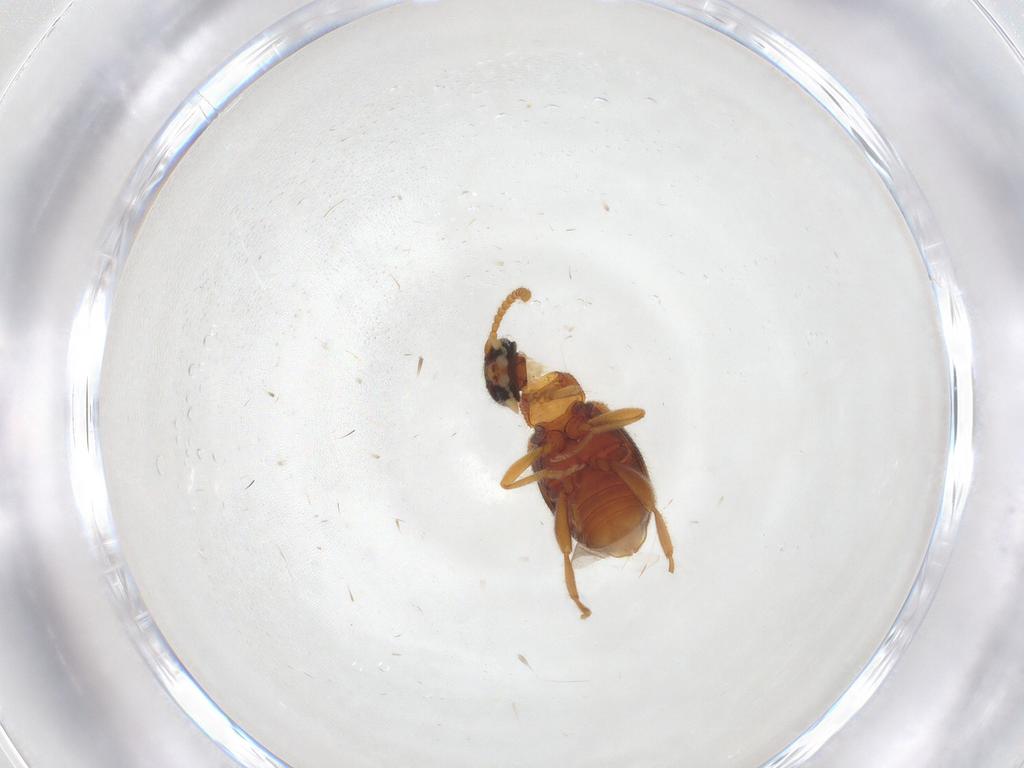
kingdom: Animalia
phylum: Arthropoda
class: Insecta
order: Coleoptera
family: Aderidae
